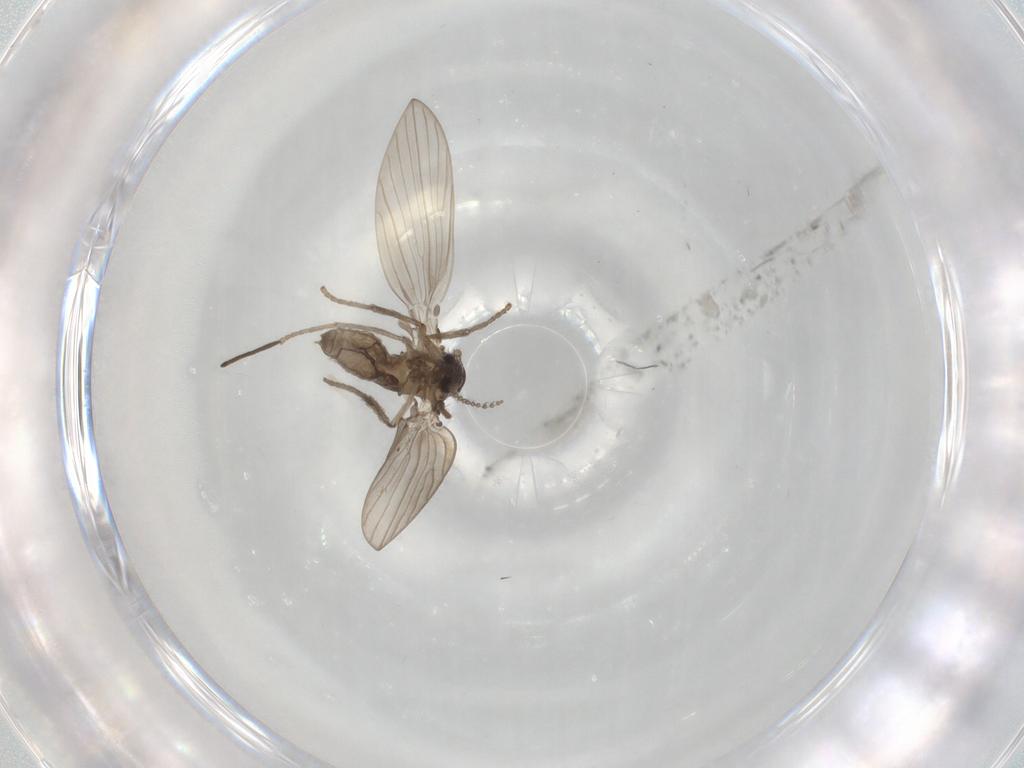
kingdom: Animalia
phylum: Arthropoda
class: Insecta
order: Diptera
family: Psychodidae
